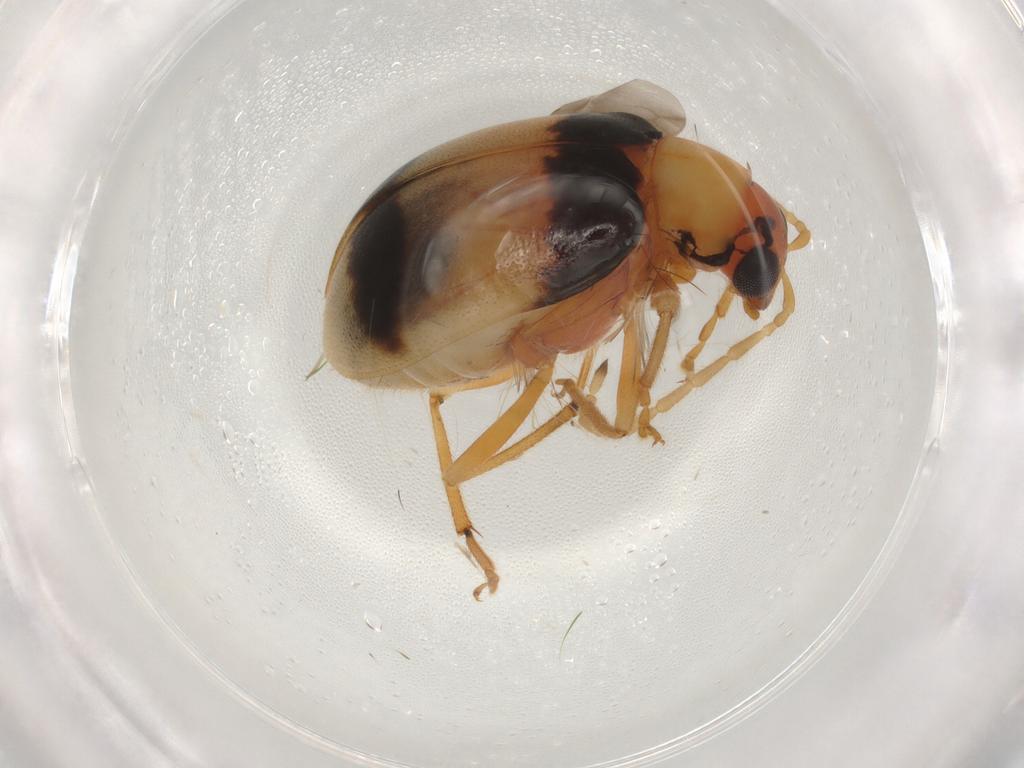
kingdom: Animalia
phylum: Arthropoda
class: Insecta
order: Coleoptera
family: Chrysomelidae
